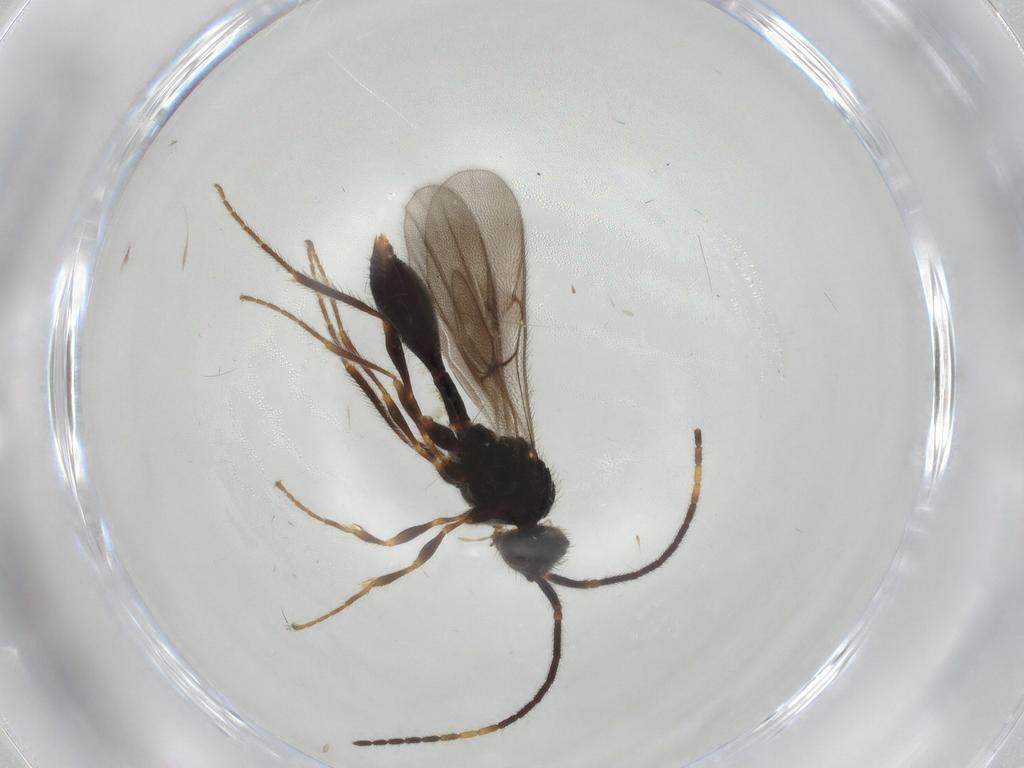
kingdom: Animalia
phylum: Arthropoda
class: Insecta
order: Hymenoptera
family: Diapriidae
